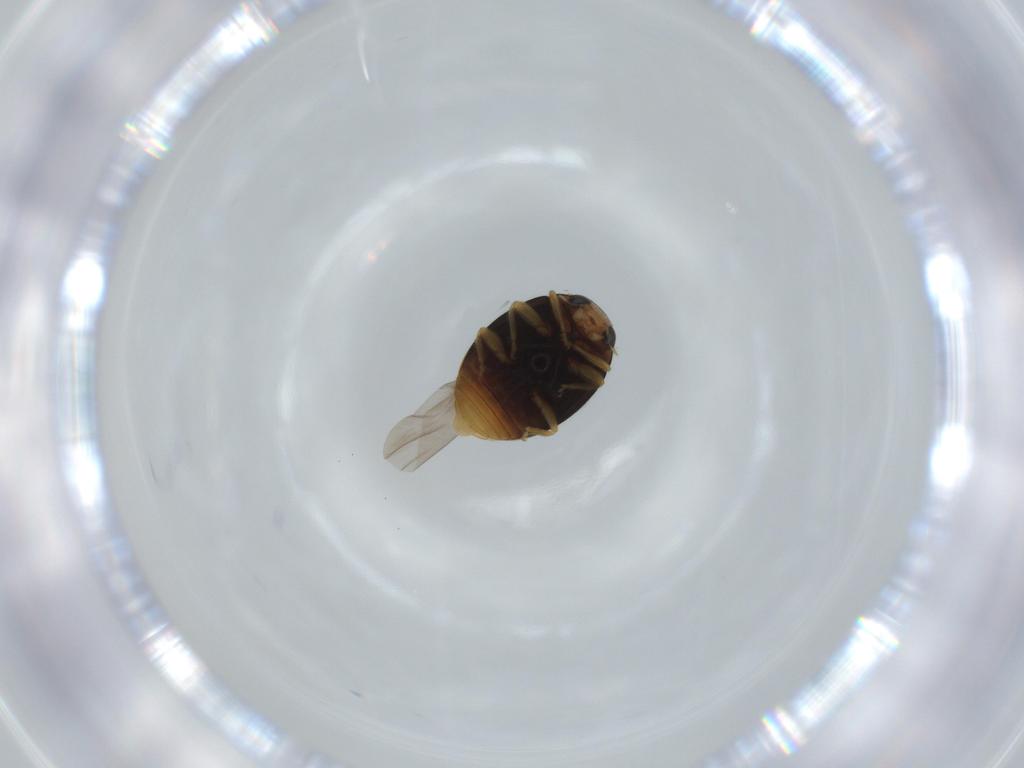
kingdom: Animalia
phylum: Arthropoda
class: Insecta
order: Coleoptera
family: Coccinellidae
